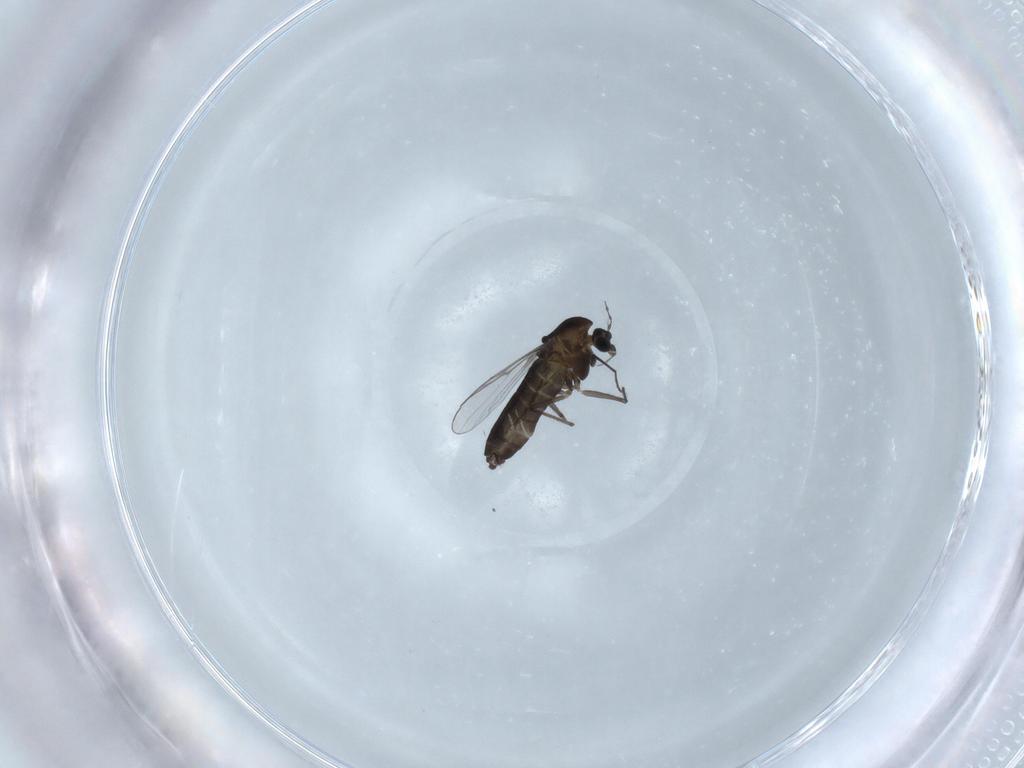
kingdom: Animalia
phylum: Arthropoda
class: Insecta
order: Diptera
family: Chironomidae
